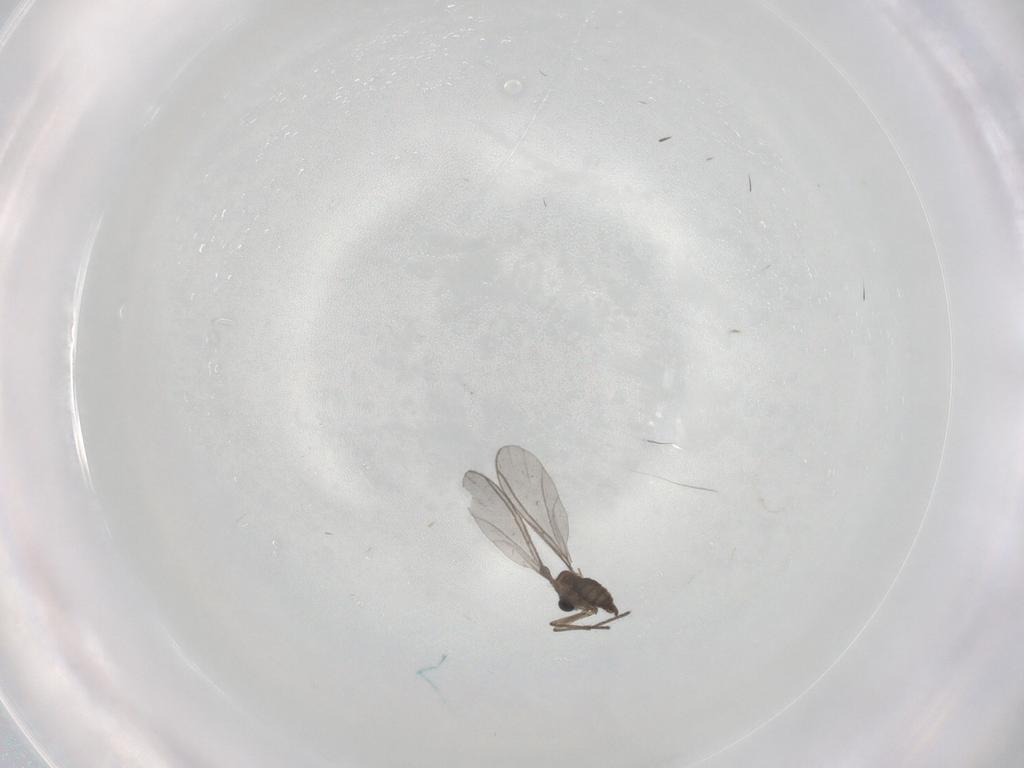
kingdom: Animalia
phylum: Arthropoda
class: Insecta
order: Diptera
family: Cecidomyiidae
